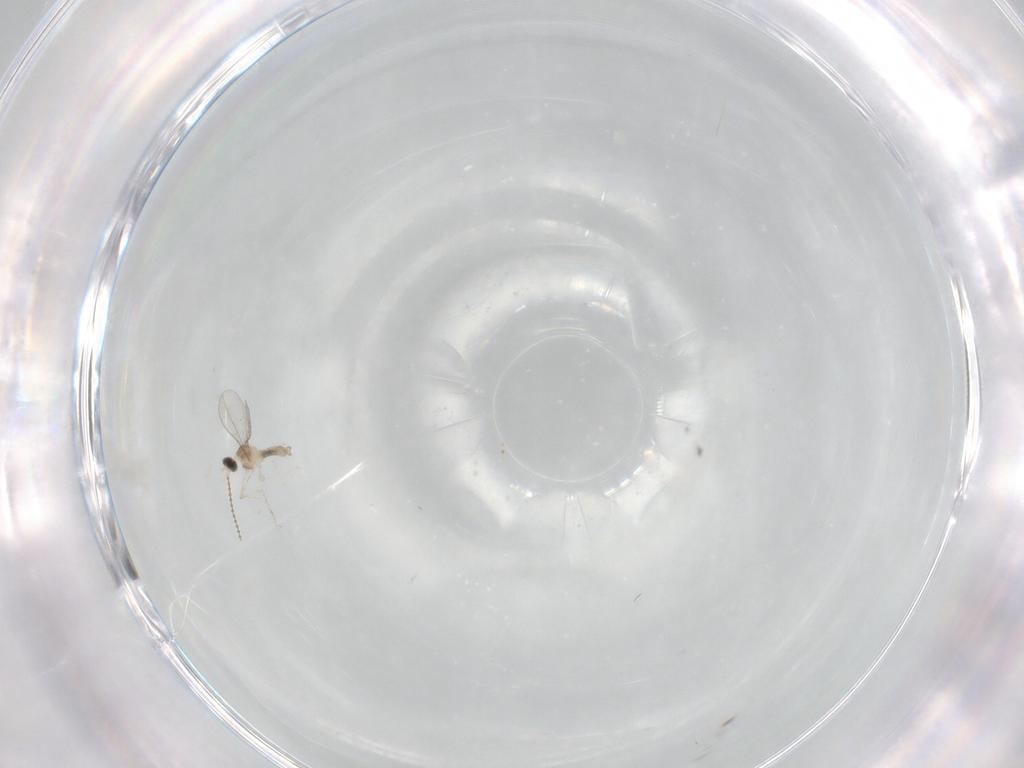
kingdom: Animalia
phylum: Arthropoda
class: Insecta
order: Diptera
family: Cecidomyiidae
